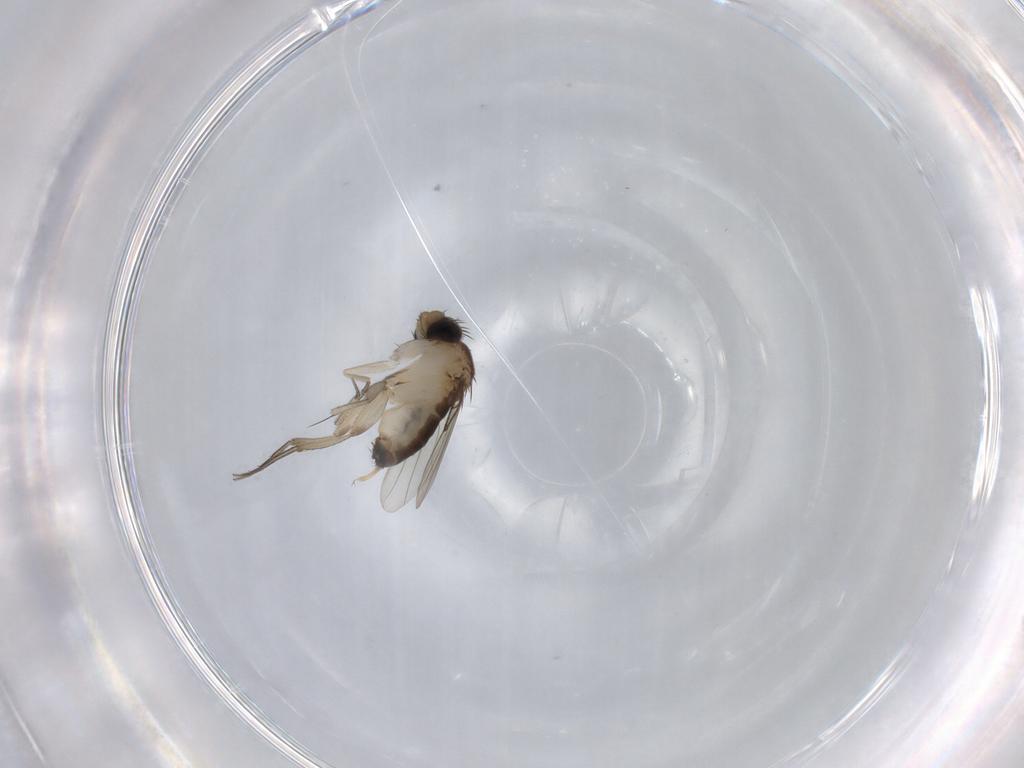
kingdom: Animalia
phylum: Arthropoda
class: Insecta
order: Diptera
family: Phoridae
